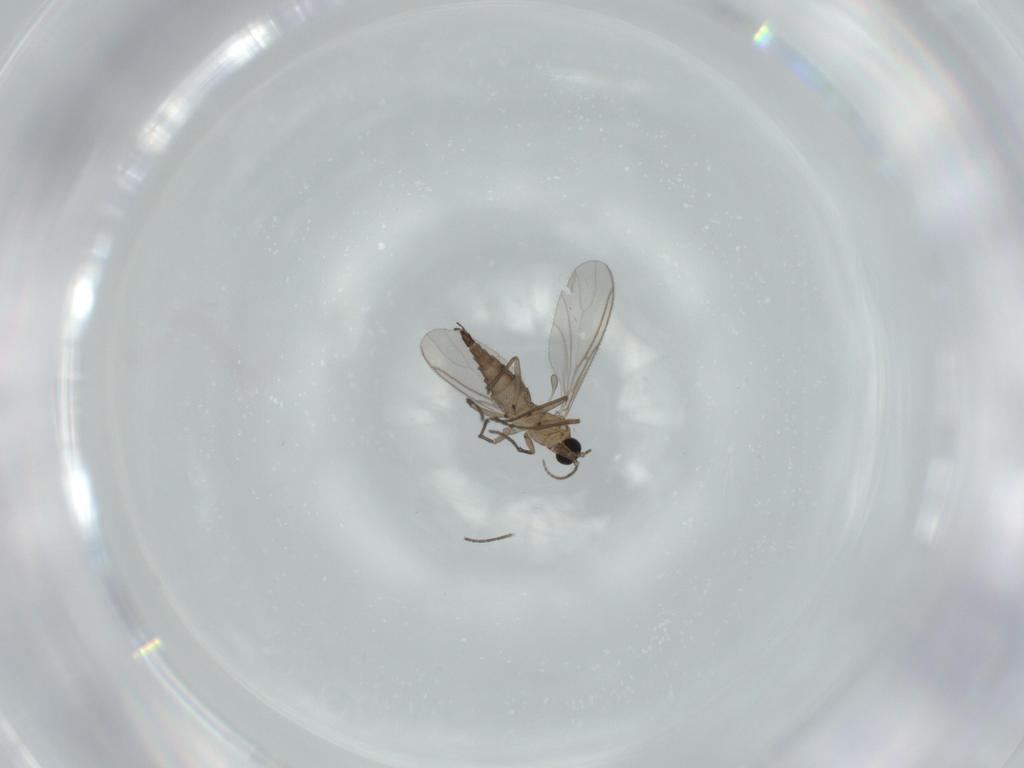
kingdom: Animalia
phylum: Arthropoda
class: Insecta
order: Diptera
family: Sciaridae
